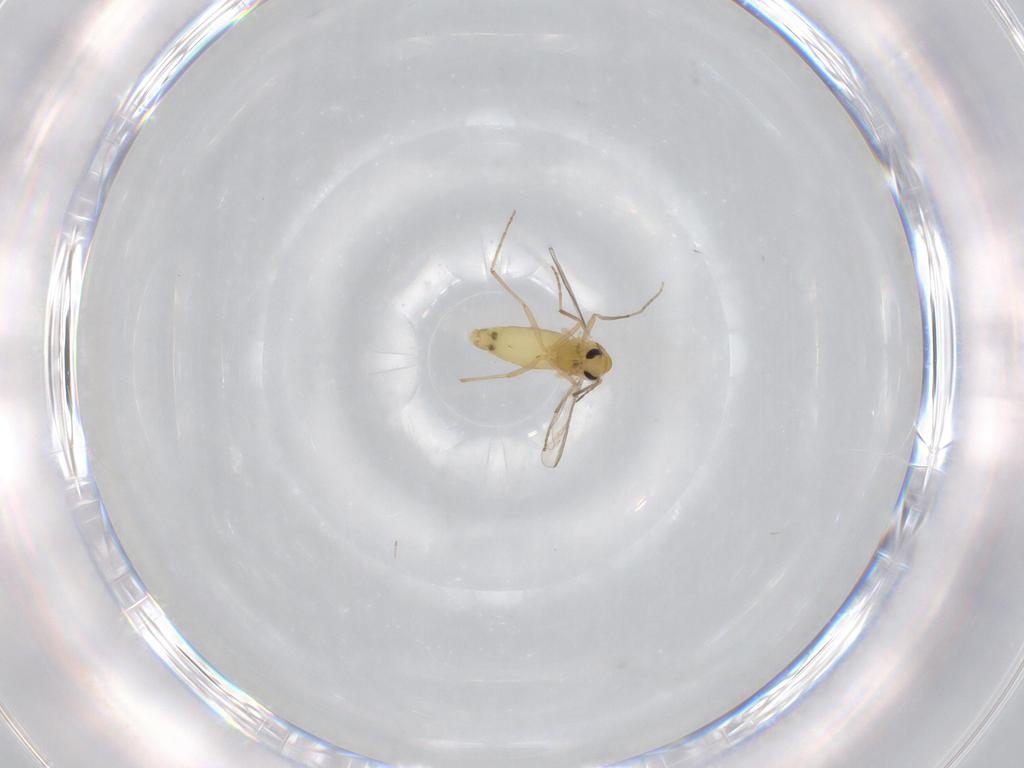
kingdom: Animalia
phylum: Arthropoda
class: Insecta
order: Diptera
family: Chironomidae
